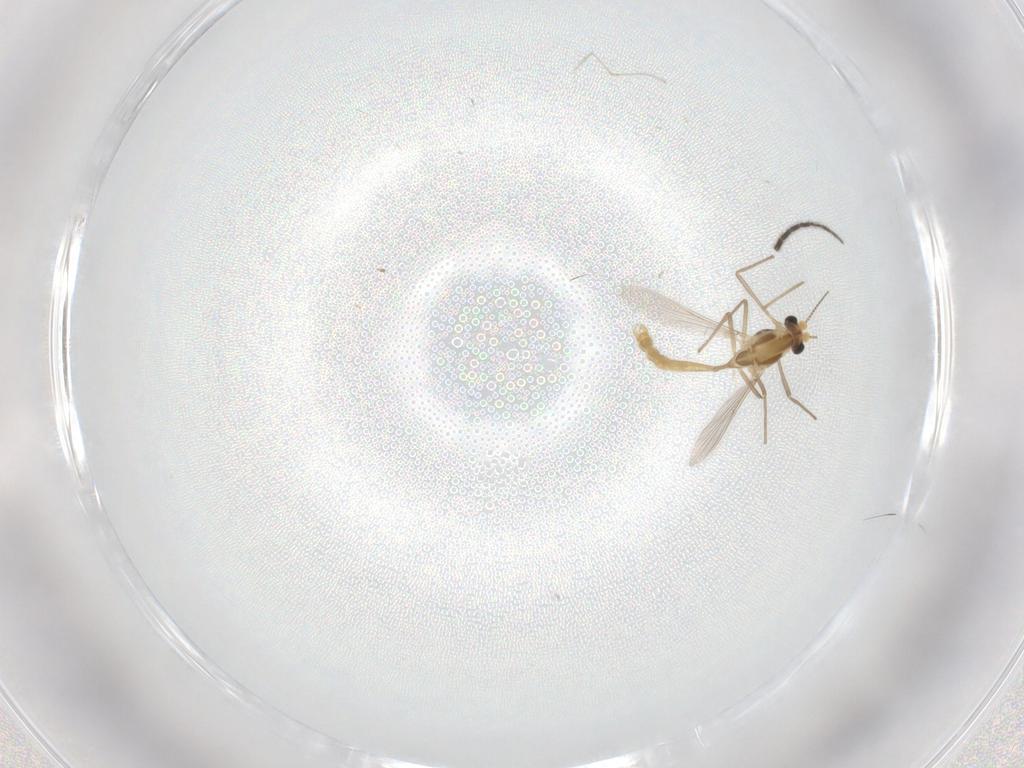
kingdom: Animalia
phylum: Arthropoda
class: Insecta
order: Diptera
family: Sciaridae
